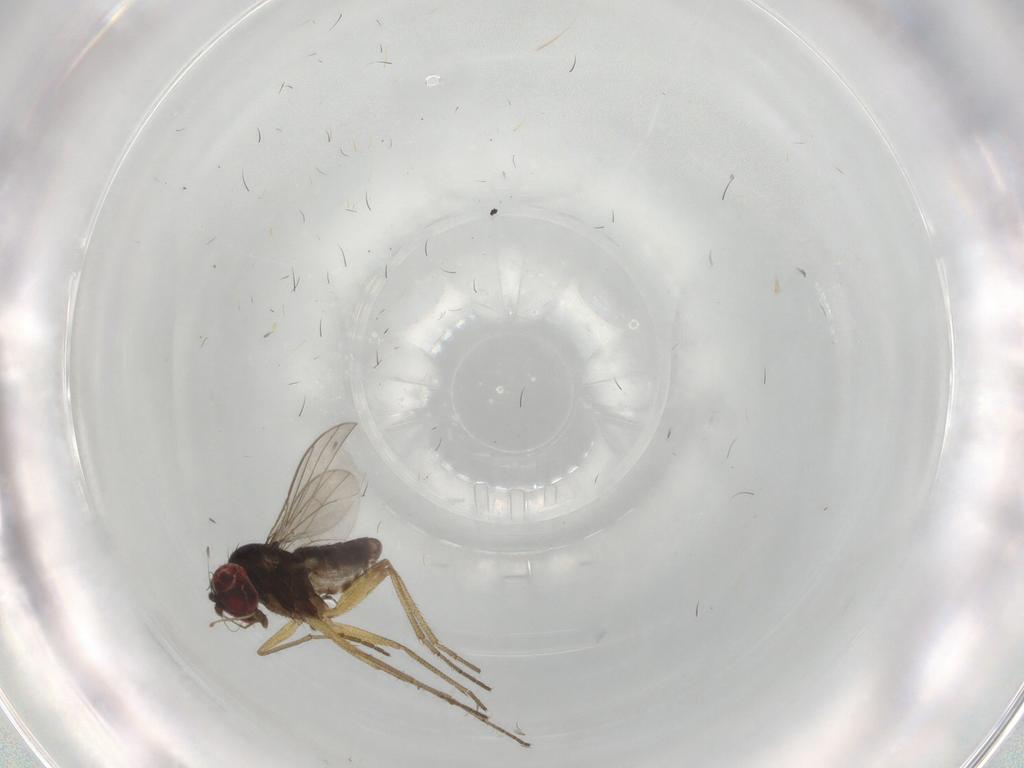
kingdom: Animalia
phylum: Arthropoda
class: Insecta
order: Diptera
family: Dolichopodidae
